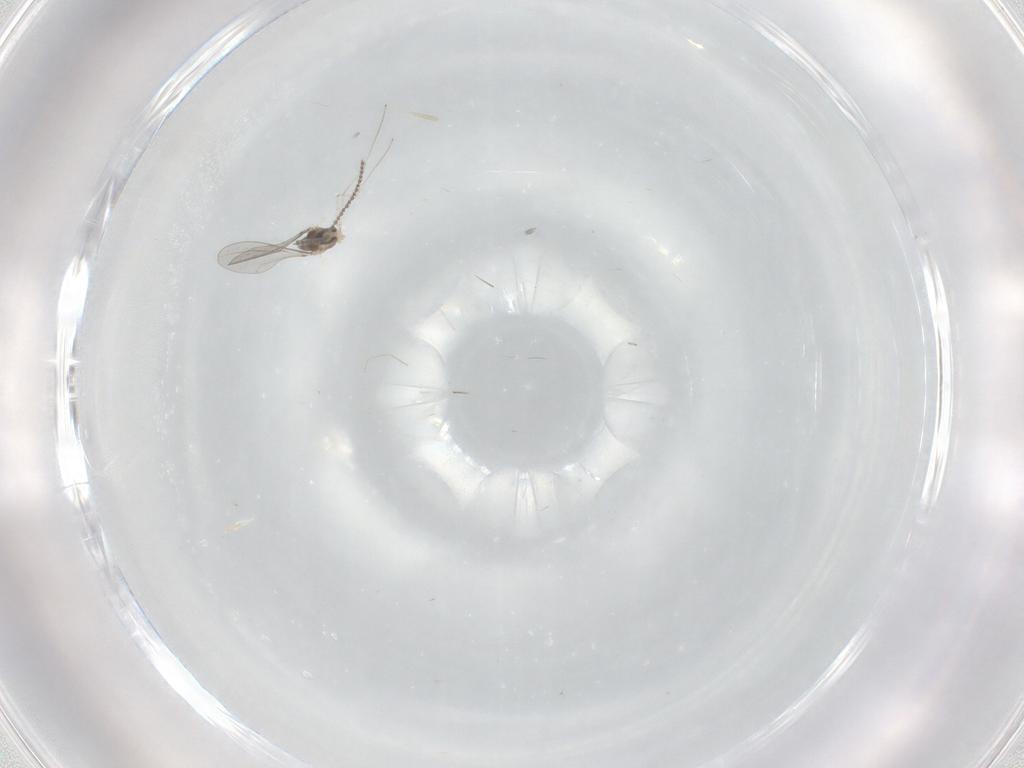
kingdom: Animalia
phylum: Arthropoda
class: Insecta
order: Diptera
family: Cecidomyiidae
